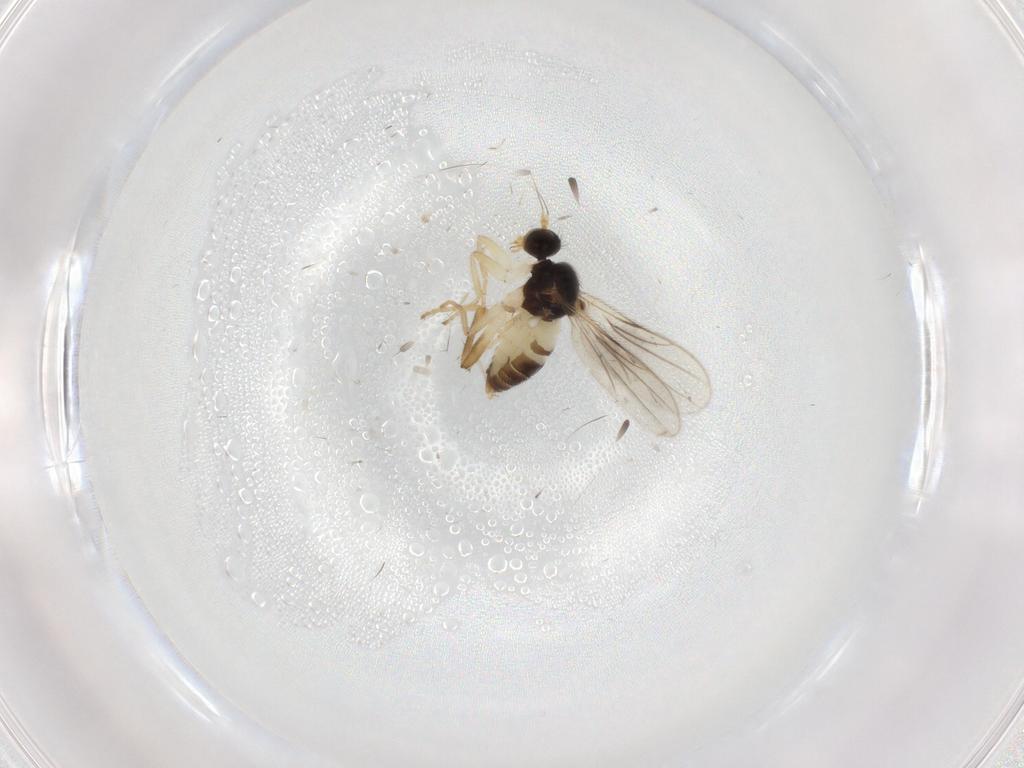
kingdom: Animalia
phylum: Arthropoda
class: Insecta
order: Diptera
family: Hybotidae
